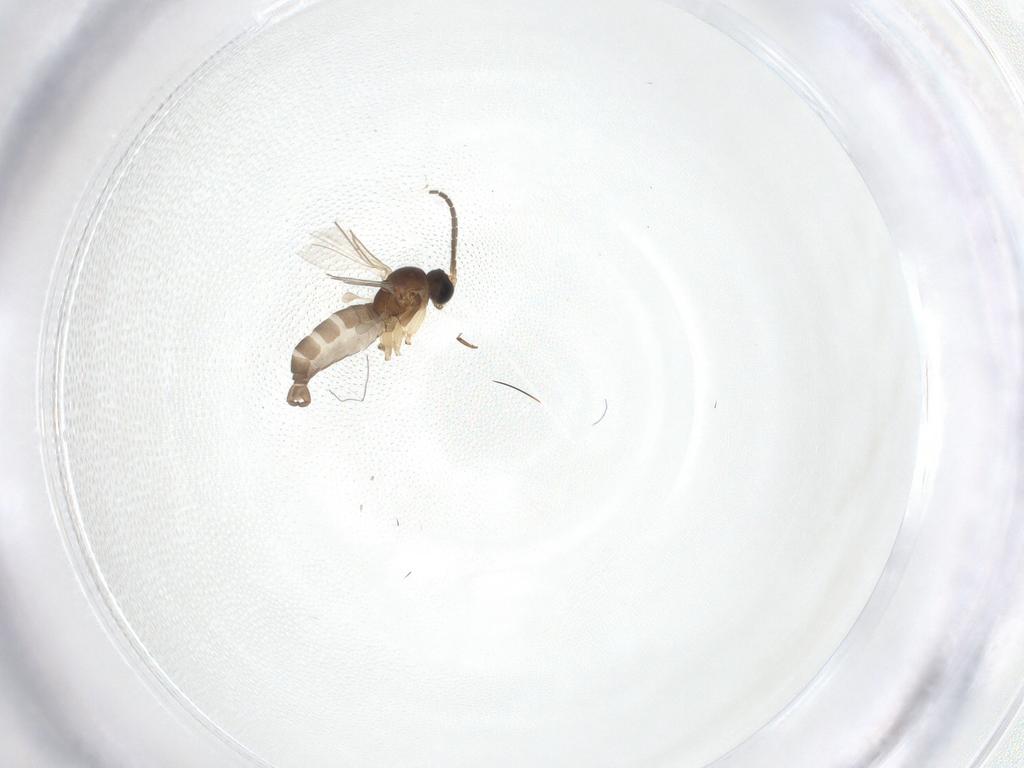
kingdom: Animalia
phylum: Arthropoda
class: Insecta
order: Diptera
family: Sciaridae
